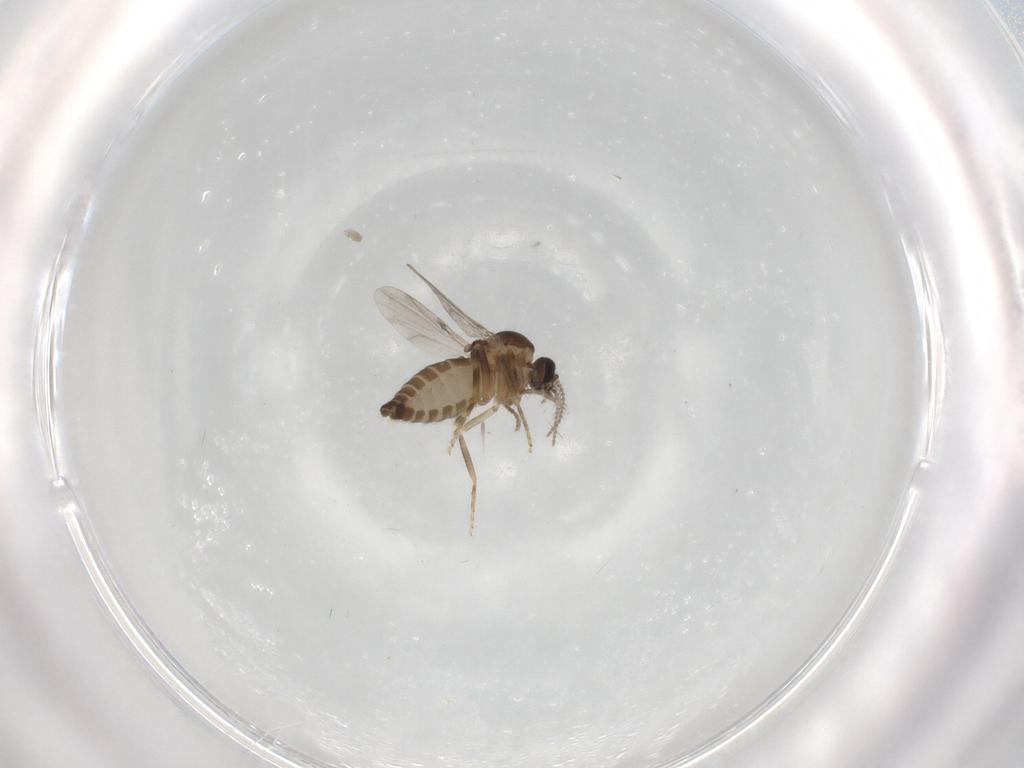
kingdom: Animalia
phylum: Arthropoda
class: Insecta
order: Diptera
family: Ceratopogonidae
